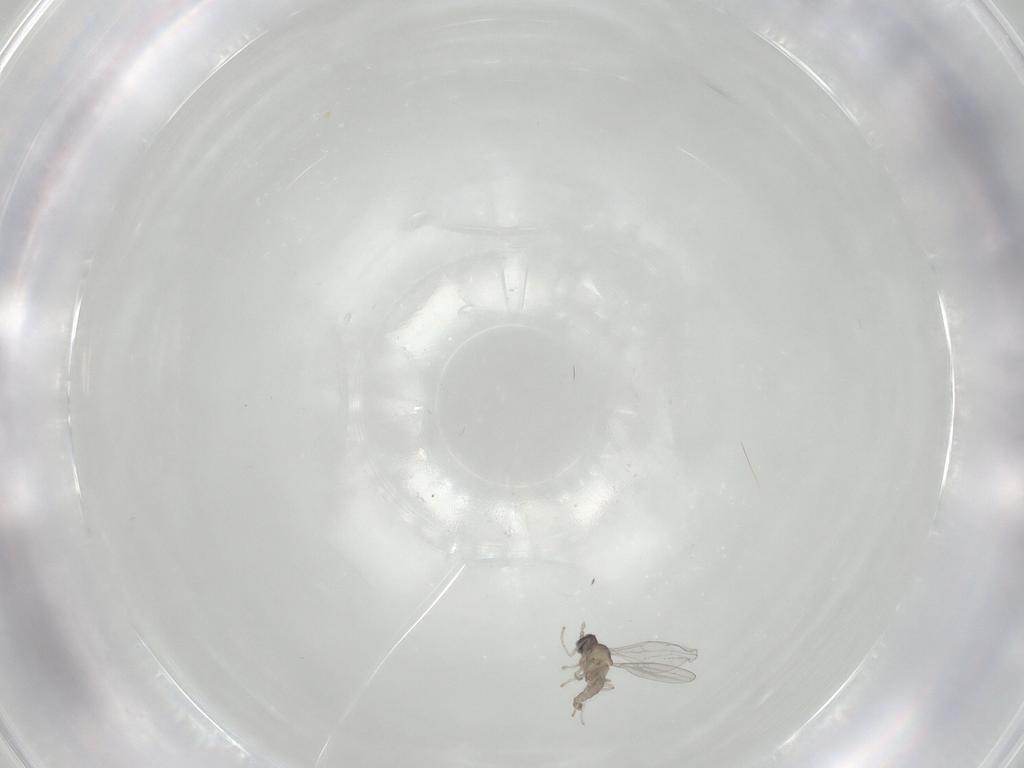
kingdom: Animalia
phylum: Arthropoda
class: Insecta
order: Diptera
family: Cecidomyiidae
